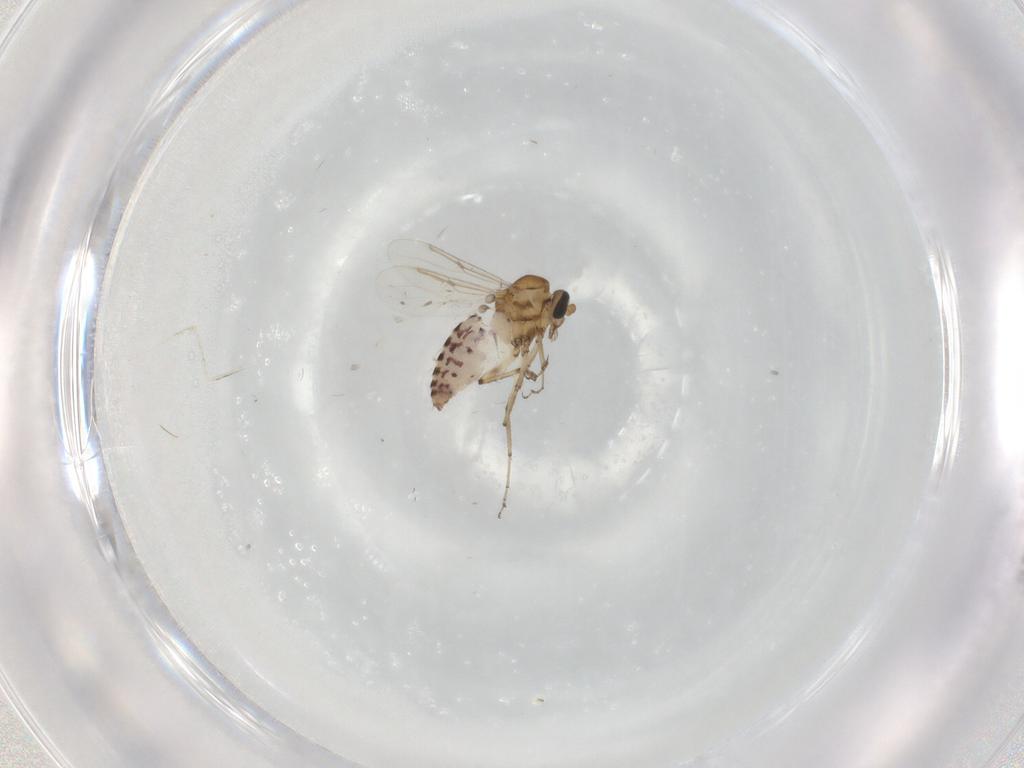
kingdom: Animalia
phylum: Arthropoda
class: Insecta
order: Diptera
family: Ceratopogonidae
